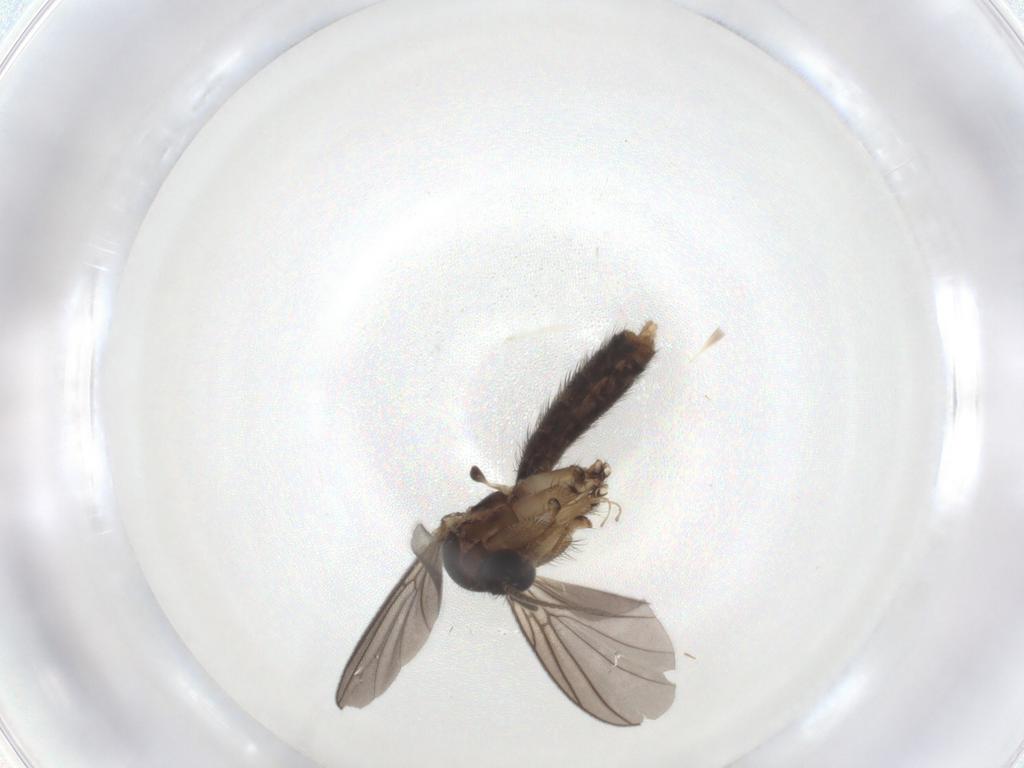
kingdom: Animalia
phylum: Arthropoda
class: Insecta
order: Diptera
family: Mycetophilidae
